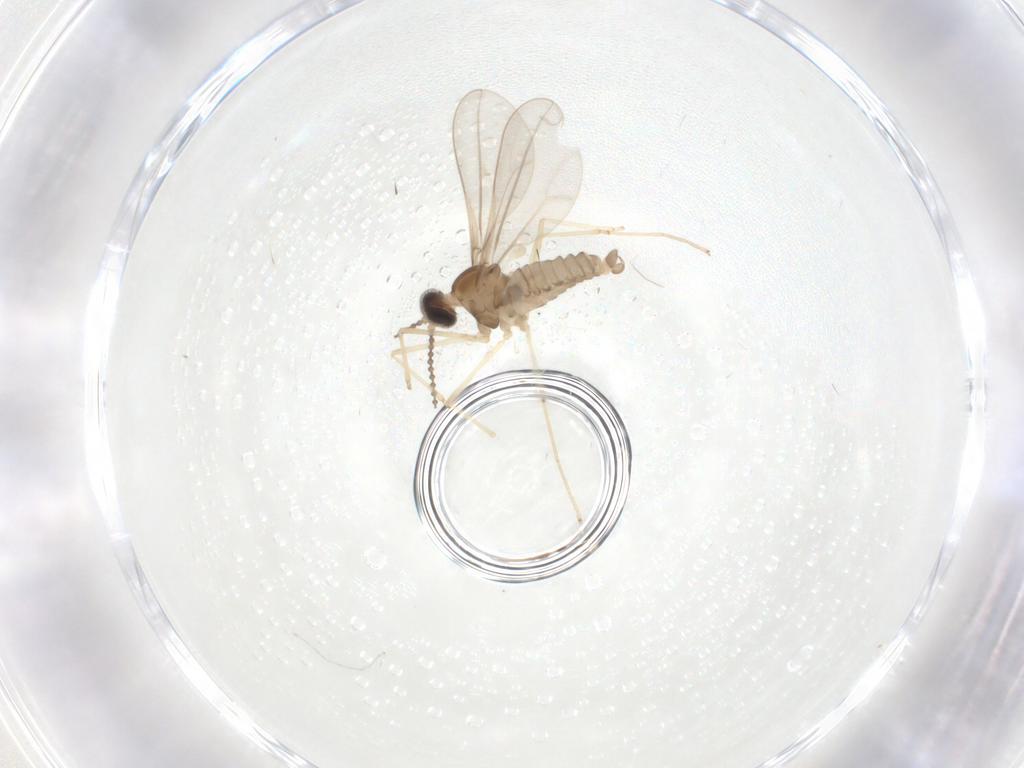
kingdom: Animalia
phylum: Arthropoda
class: Insecta
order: Diptera
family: Cecidomyiidae
